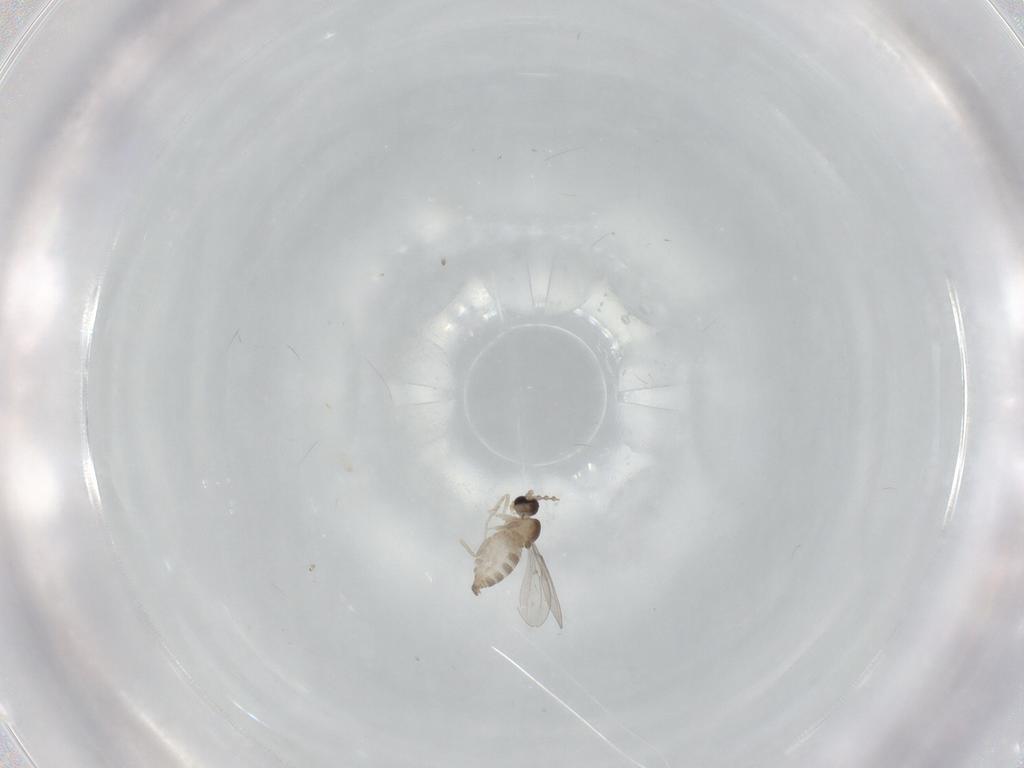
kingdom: Animalia
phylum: Arthropoda
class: Insecta
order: Diptera
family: Cecidomyiidae
